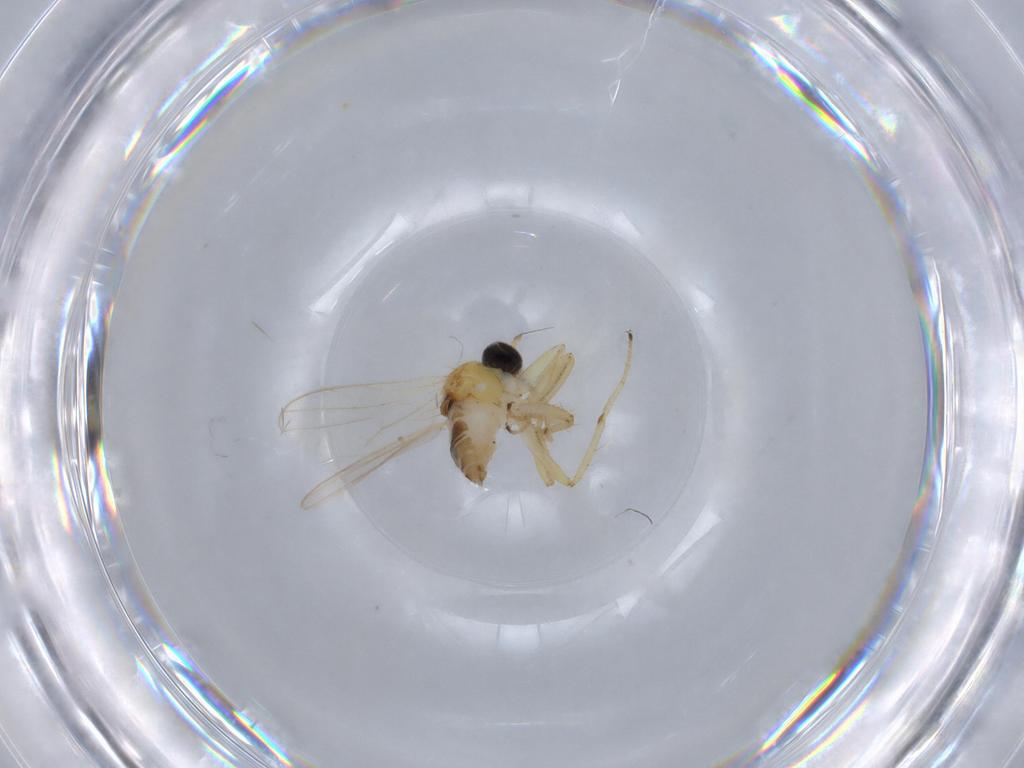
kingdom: Animalia
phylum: Arthropoda
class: Insecta
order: Diptera
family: Hybotidae
